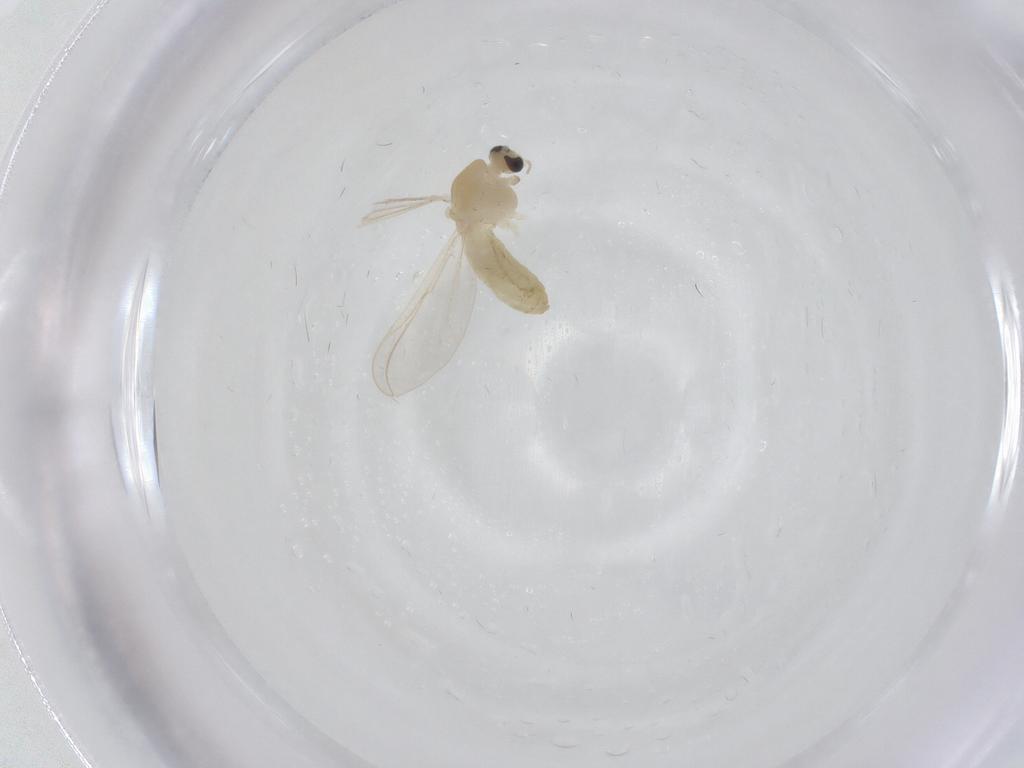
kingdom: Animalia
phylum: Arthropoda
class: Insecta
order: Diptera
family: Chironomidae
